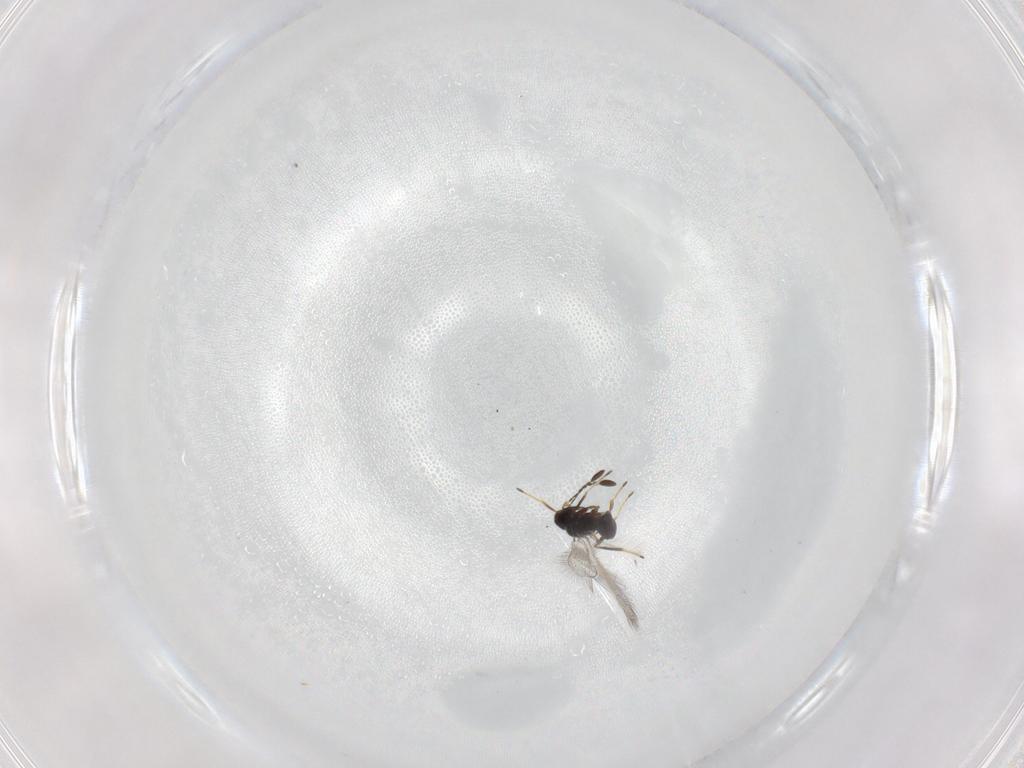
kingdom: Animalia
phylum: Arthropoda
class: Insecta
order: Hymenoptera
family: Mymaridae
